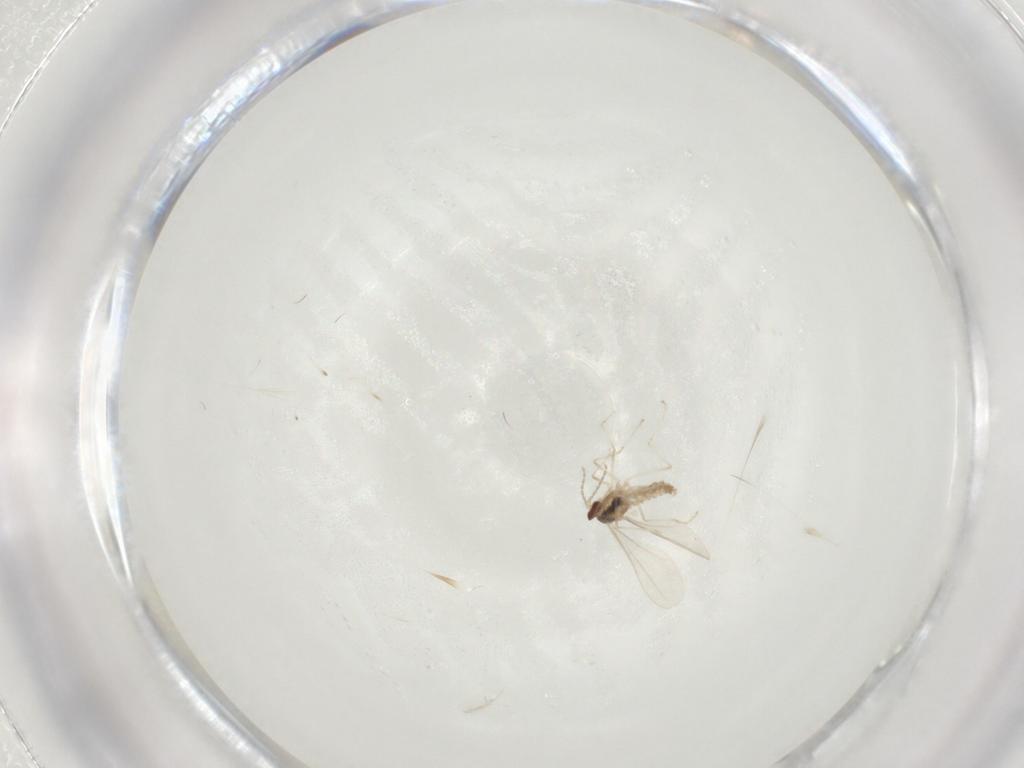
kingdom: Animalia
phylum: Arthropoda
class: Insecta
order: Diptera
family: Cecidomyiidae
